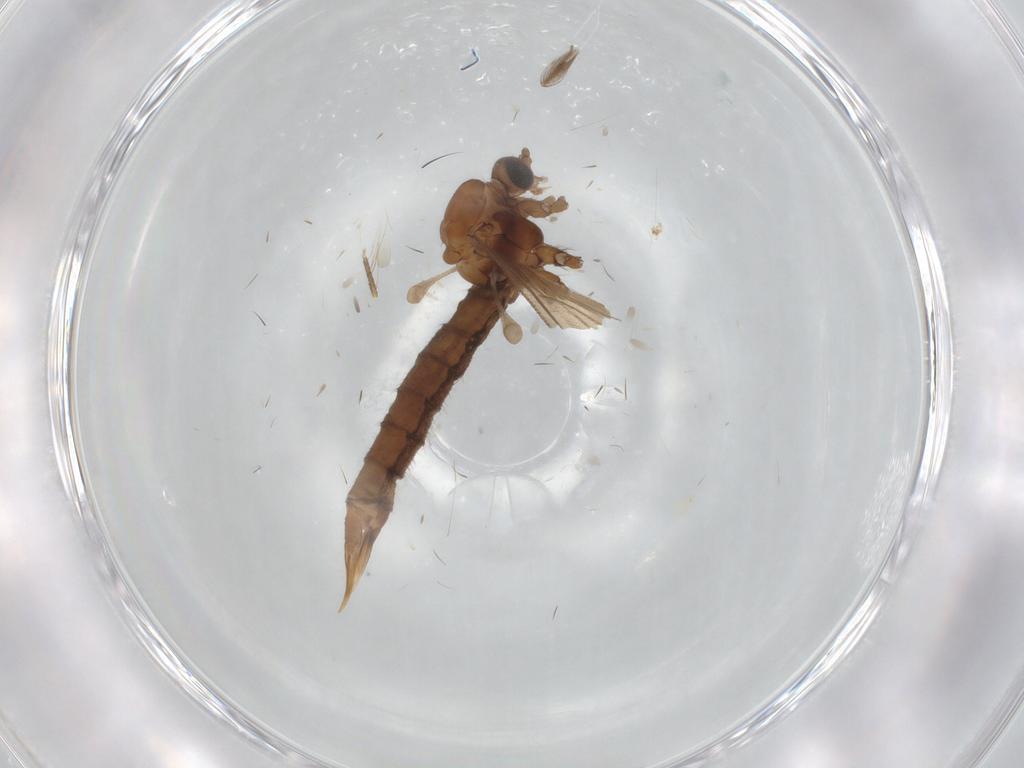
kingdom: Animalia
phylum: Arthropoda
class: Insecta
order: Diptera
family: Limoniidae
